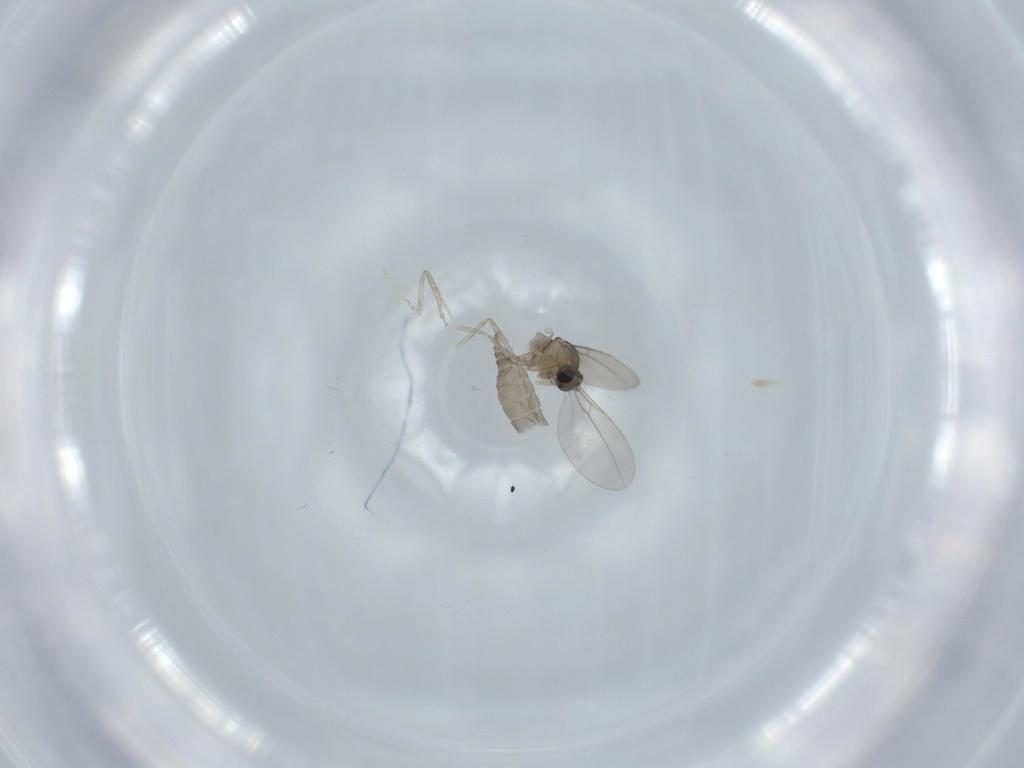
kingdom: Animalia
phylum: Arthropoda
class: Insecta
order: Diptera
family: Cecidomyiidae
